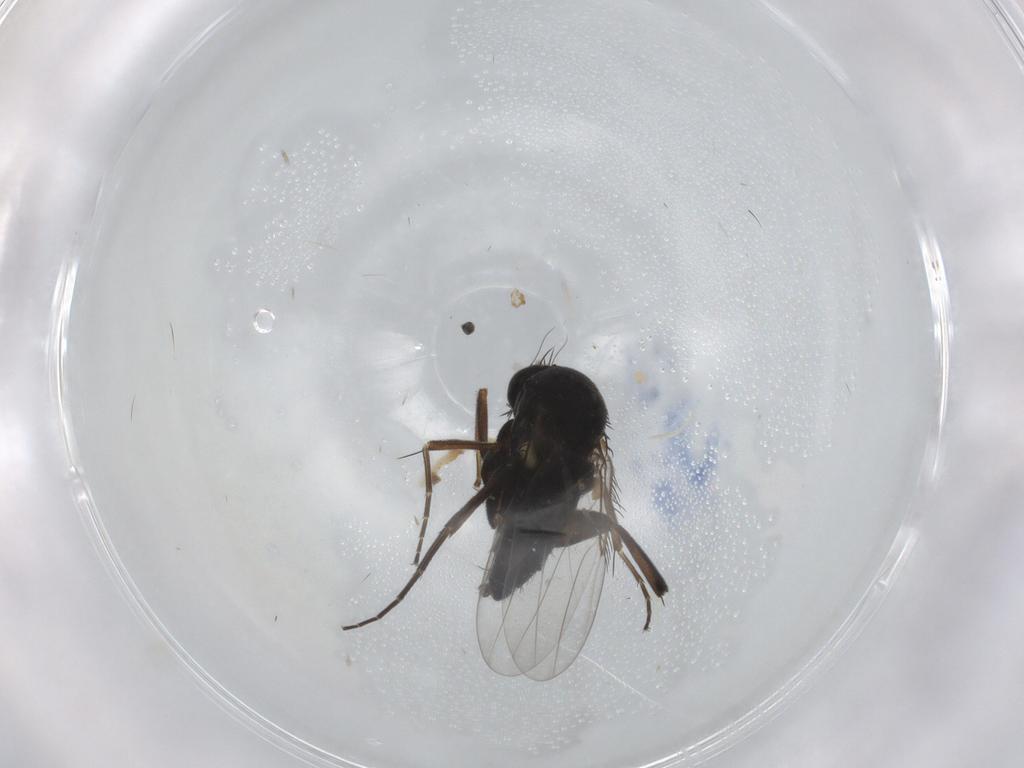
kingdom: Animalia
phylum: Arthropoda
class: Insecta
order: Diptera
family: Phoridae
